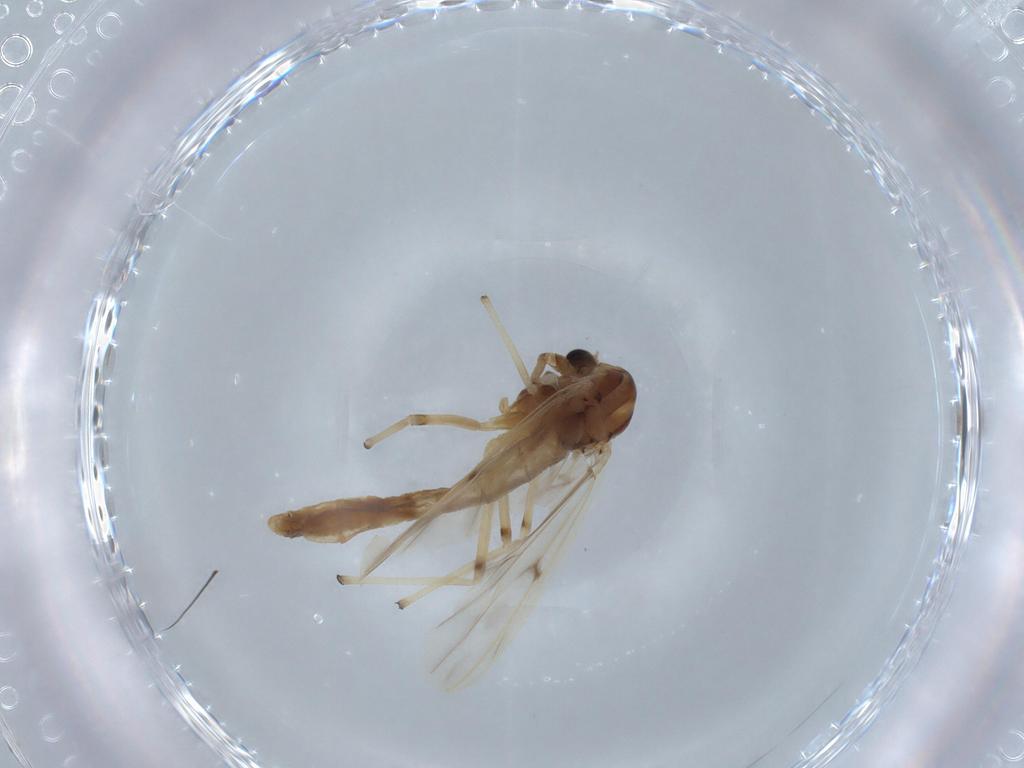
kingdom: Animalia
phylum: Arthropoda
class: Insecta
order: Diptera
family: Chironomidae
